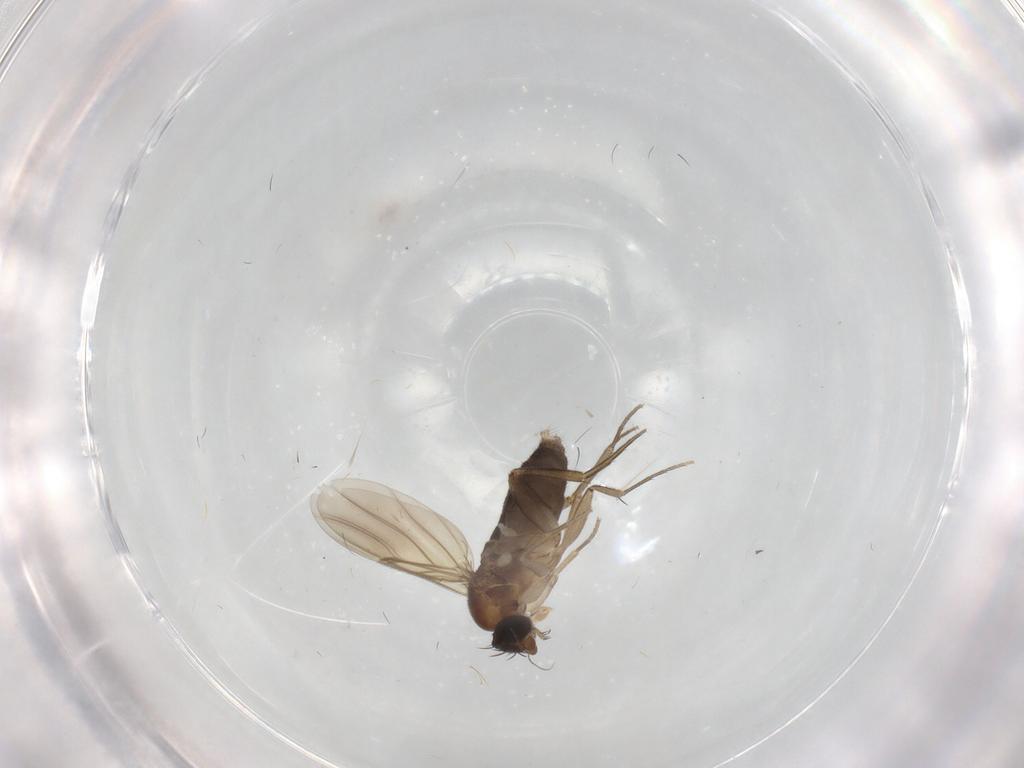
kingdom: Animalia
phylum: Arthropoda
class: Insecta
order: Diptera
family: Phoridae
